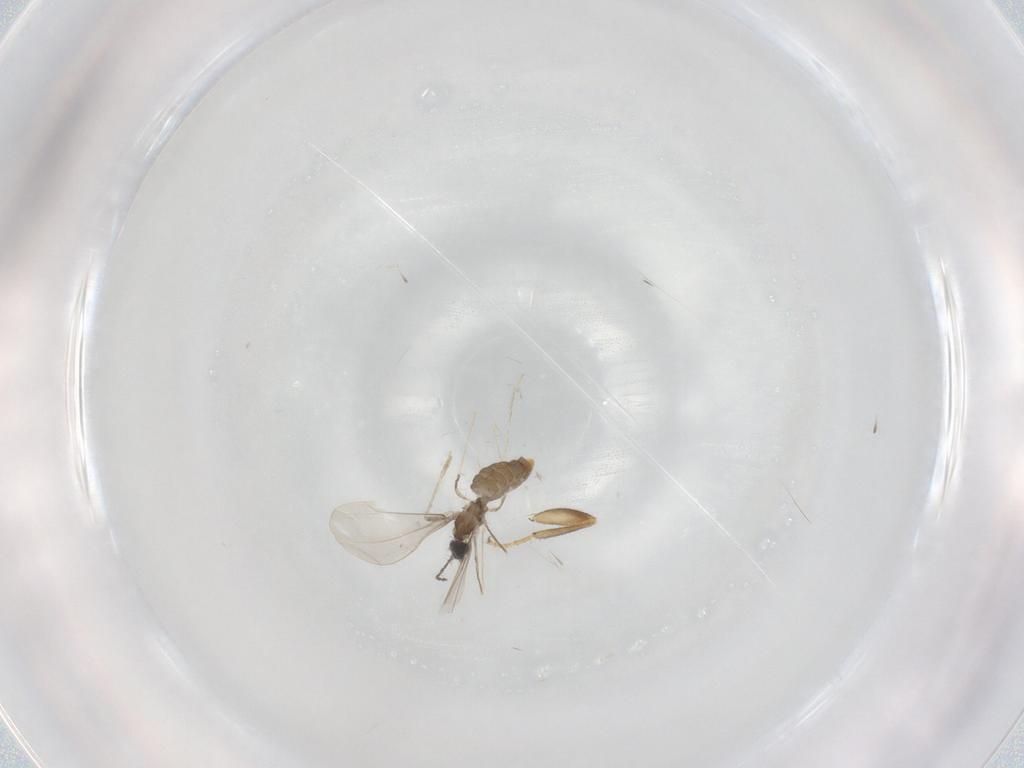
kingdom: Animalia
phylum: Arthropoda
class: Insecta
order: Diptera
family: Cecidomyiidae
